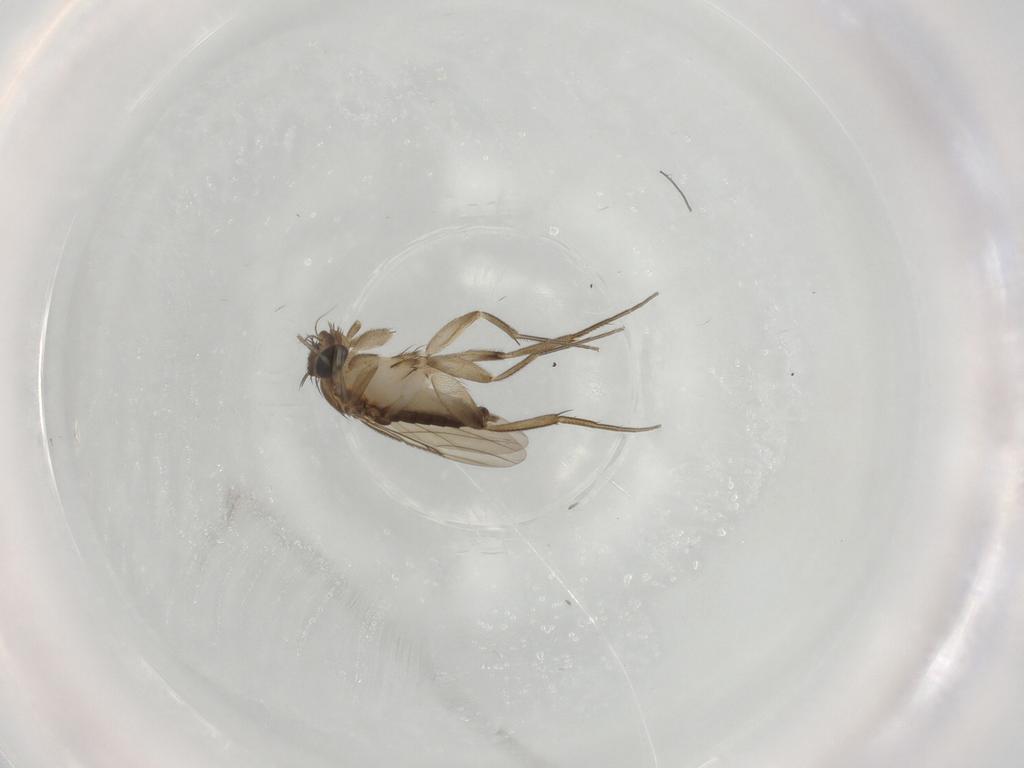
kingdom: Animalia
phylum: Arthropoda
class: Insecta
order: Diptera
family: Phoridae
